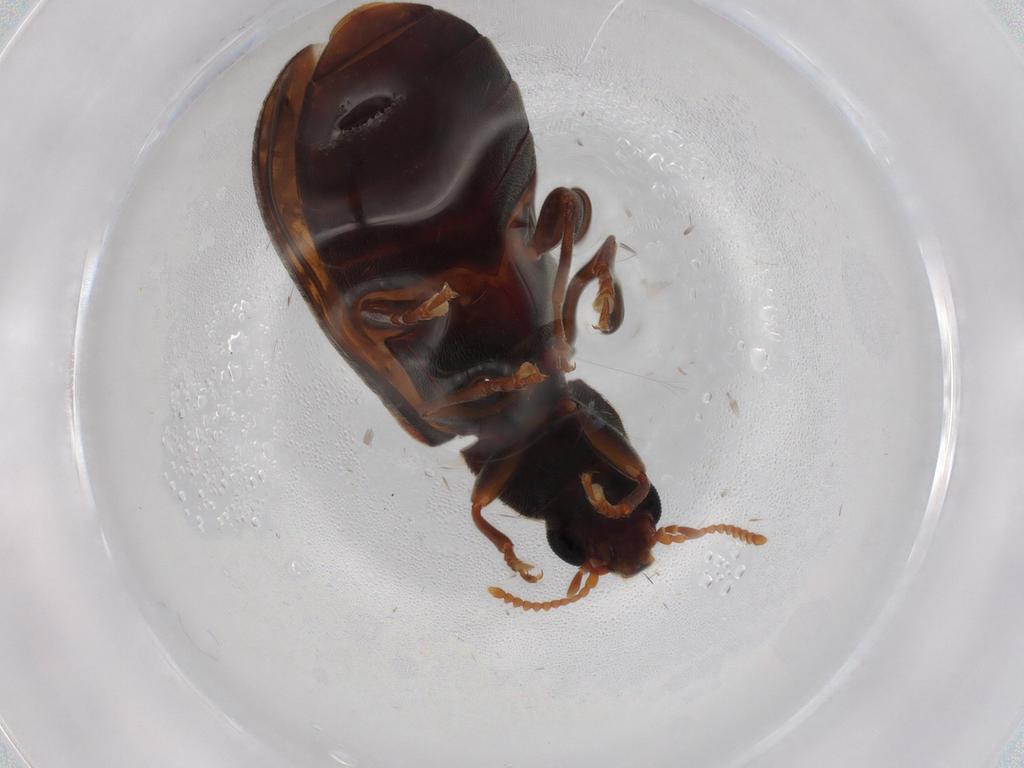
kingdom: Animalia
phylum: Arthropoda
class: Insecta
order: Coleoptera
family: Mycteridae
